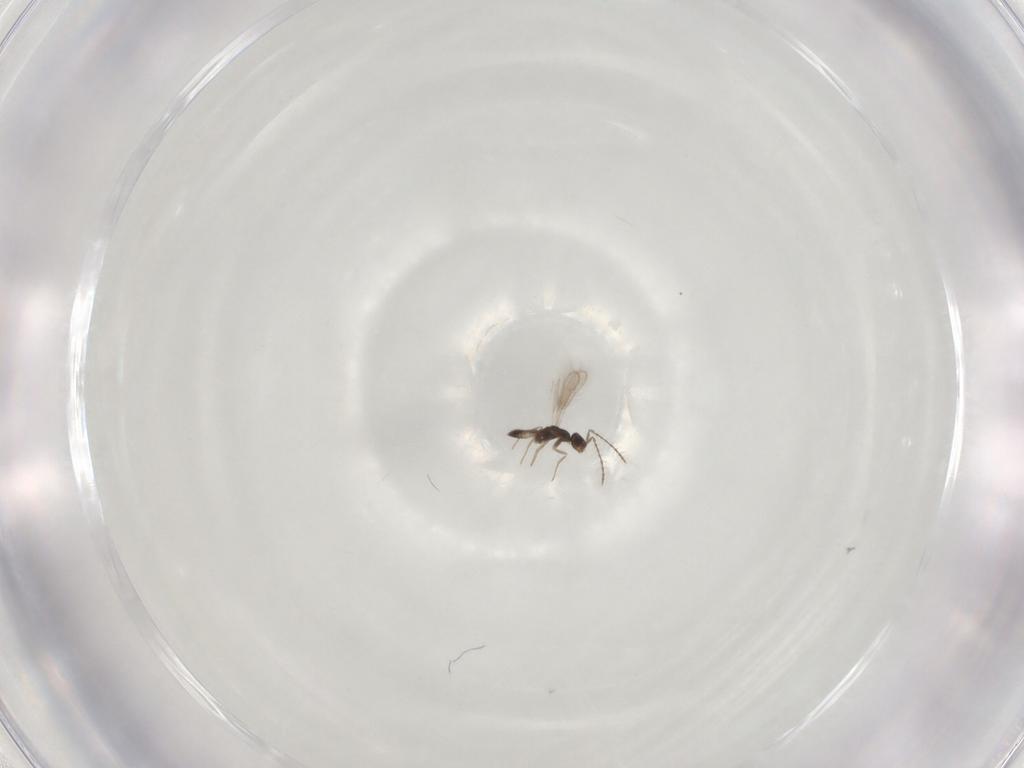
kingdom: Animalia
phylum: Arthropoda
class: Insecta
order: Hymenoptera
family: Pteromalidae
